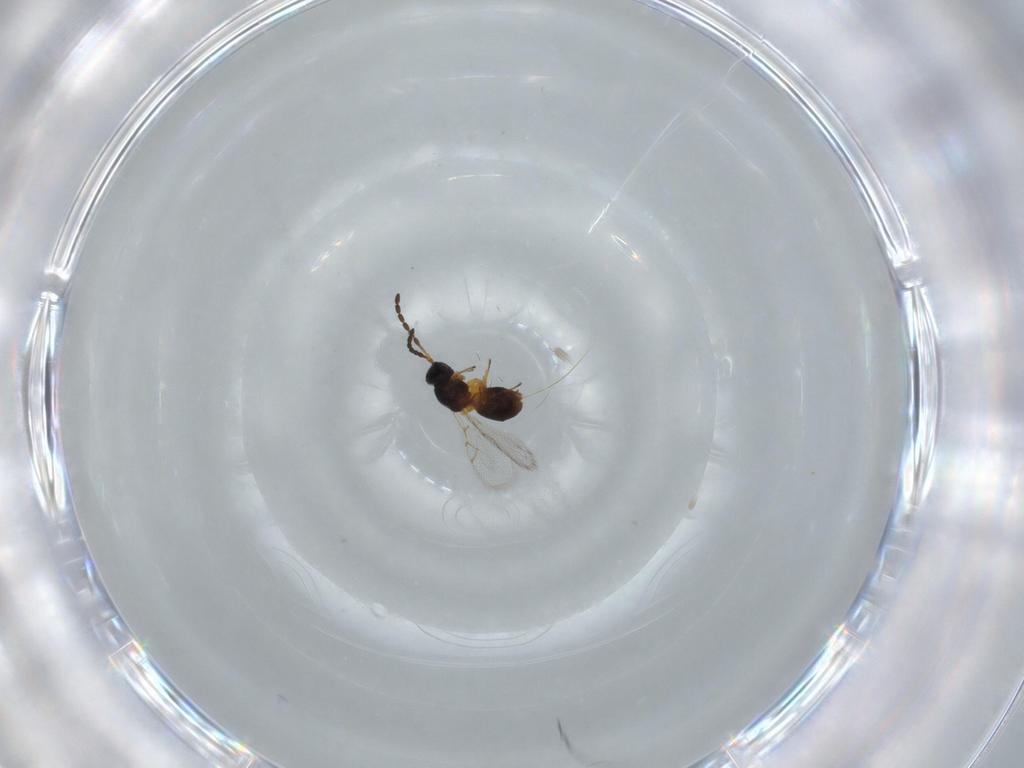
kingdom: Animalia
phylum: Arthropoda
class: Insecta
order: Hymenoptera
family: Figitidae
